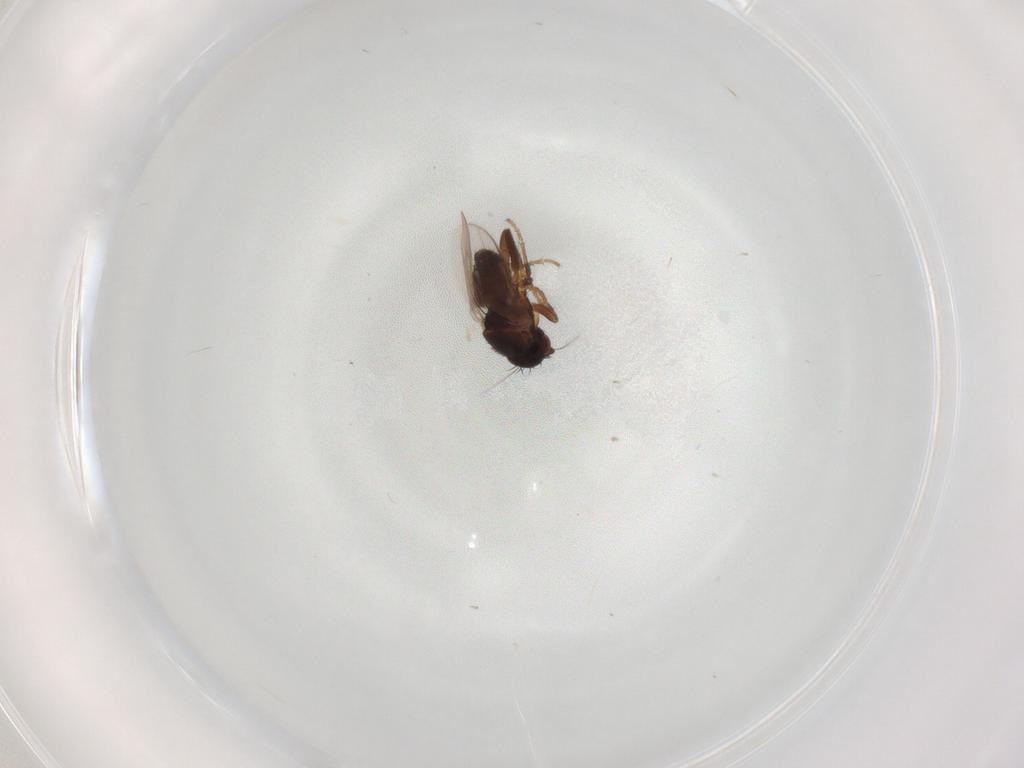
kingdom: Animalia
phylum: Arthropoda
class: Insecta
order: Diptera
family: Sphaeroceridae
